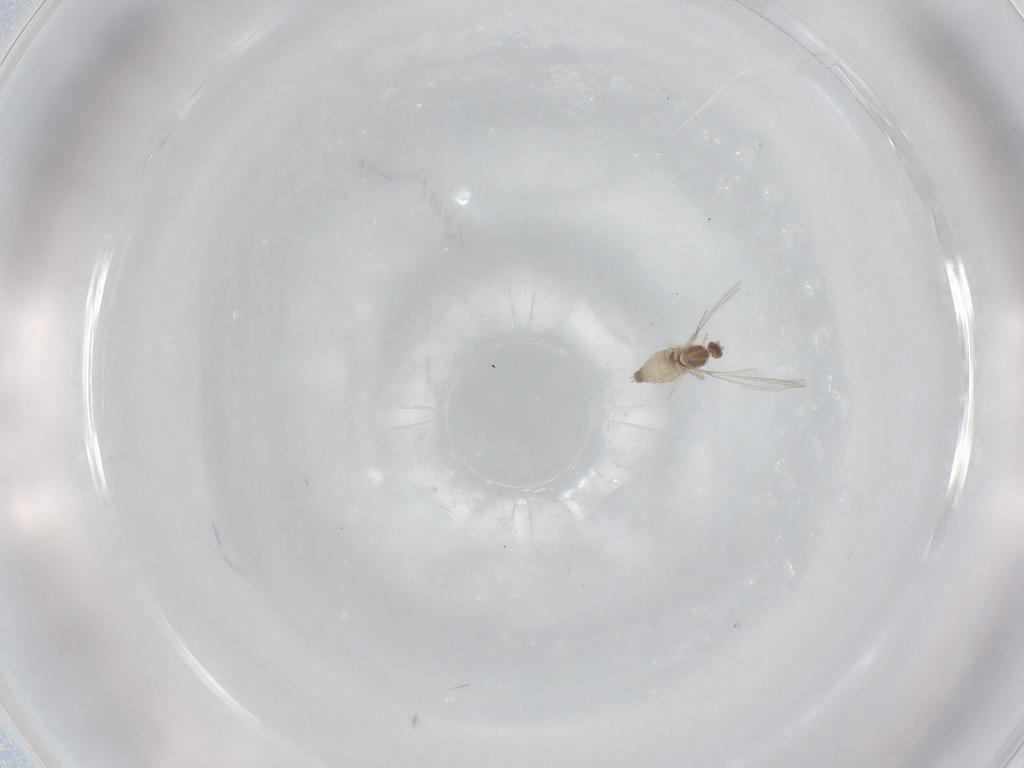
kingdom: Animalia
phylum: Arthropoda
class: Insecta
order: Diptera
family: Cecidomyiidae
